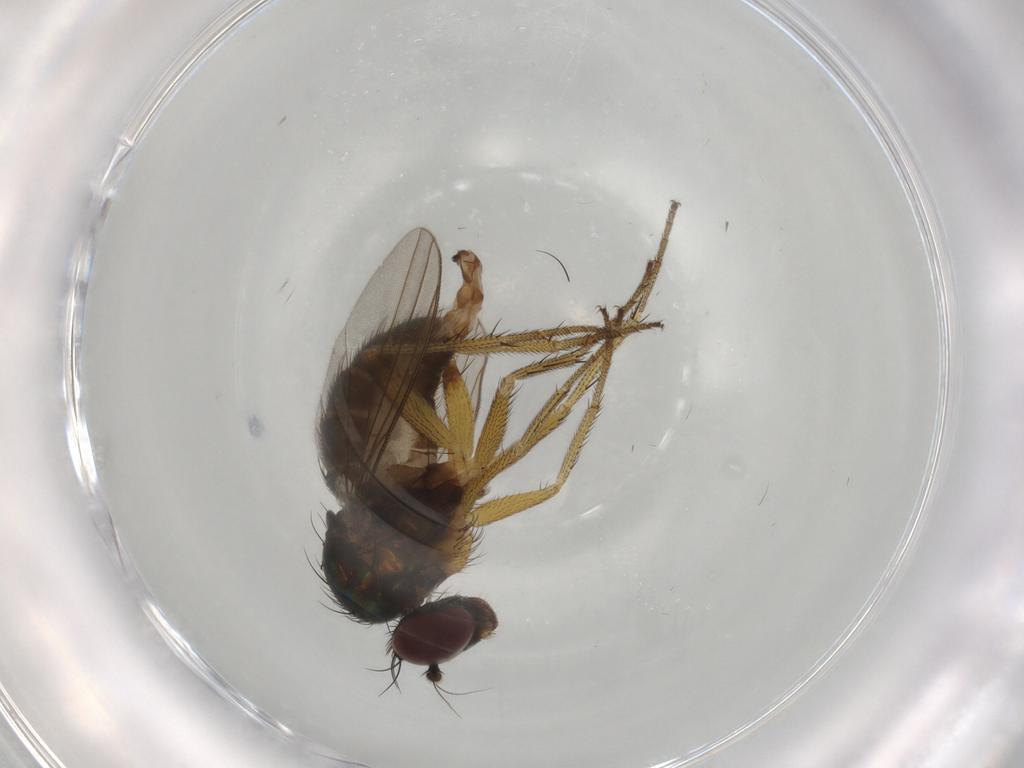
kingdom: Animalia
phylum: Arthropoda
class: Insecta
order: Diptera
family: Dolichopodidae
